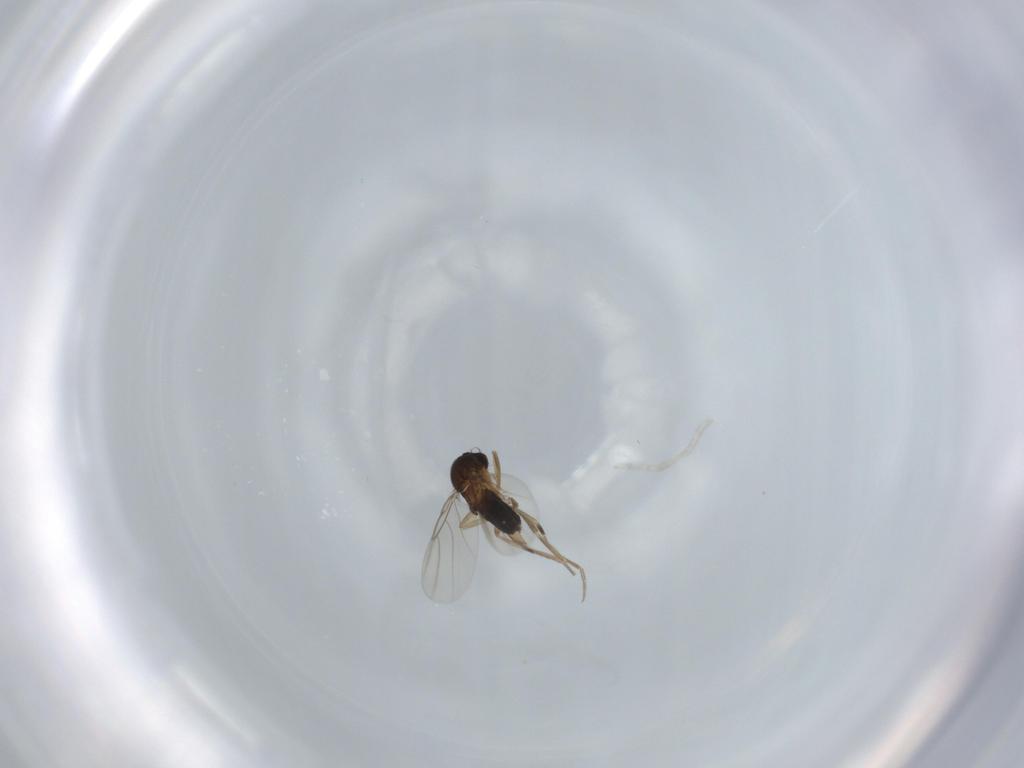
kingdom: Animalia
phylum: Arthropoda
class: Insecta
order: Diptera
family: Phoridae
